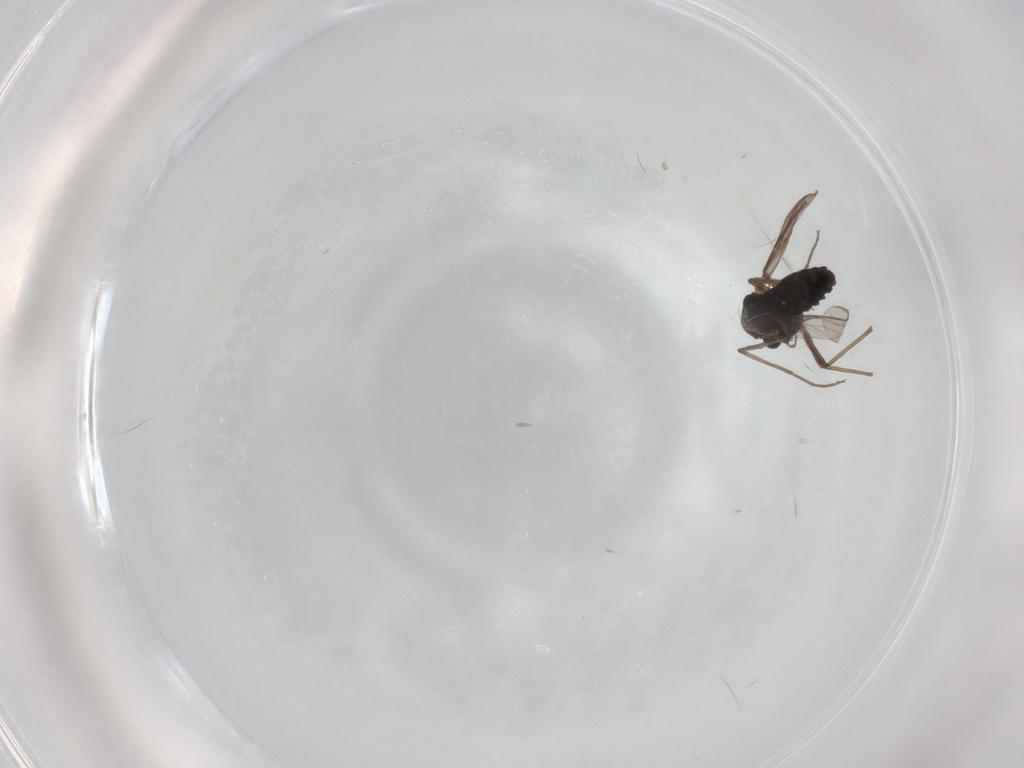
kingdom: Animalia
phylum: Arthropoda
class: Insecta
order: Diptera
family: Chironomidae
